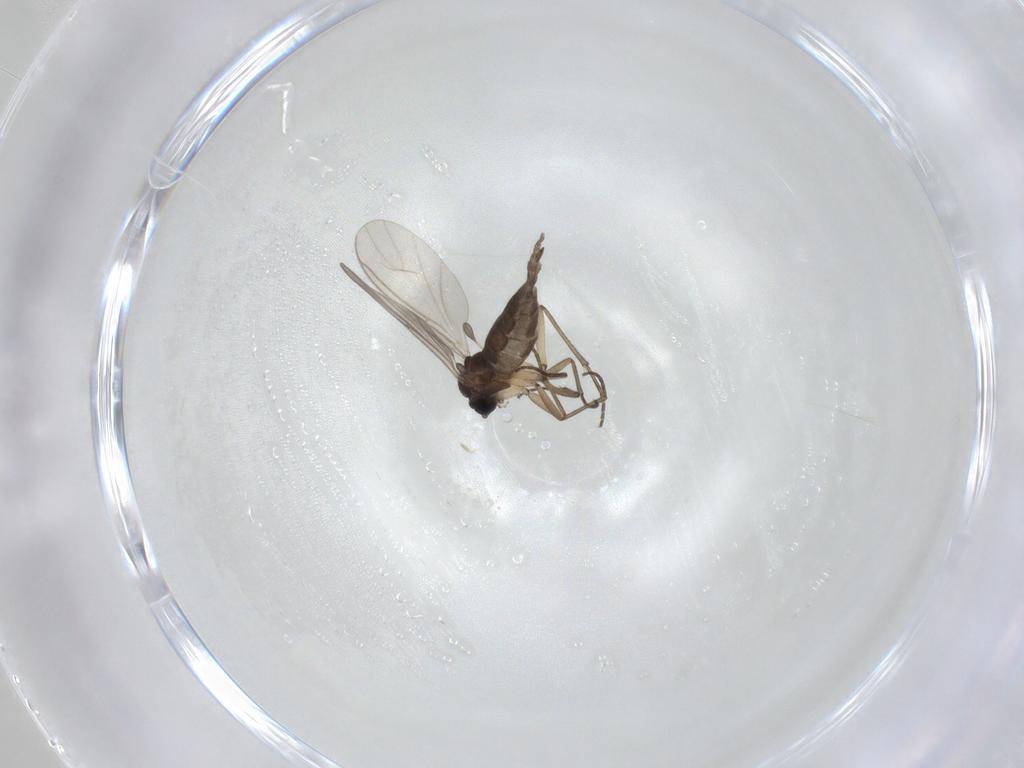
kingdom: Animalia
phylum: Arthropoda
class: Insecta
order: Diptera
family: Sciaridae
